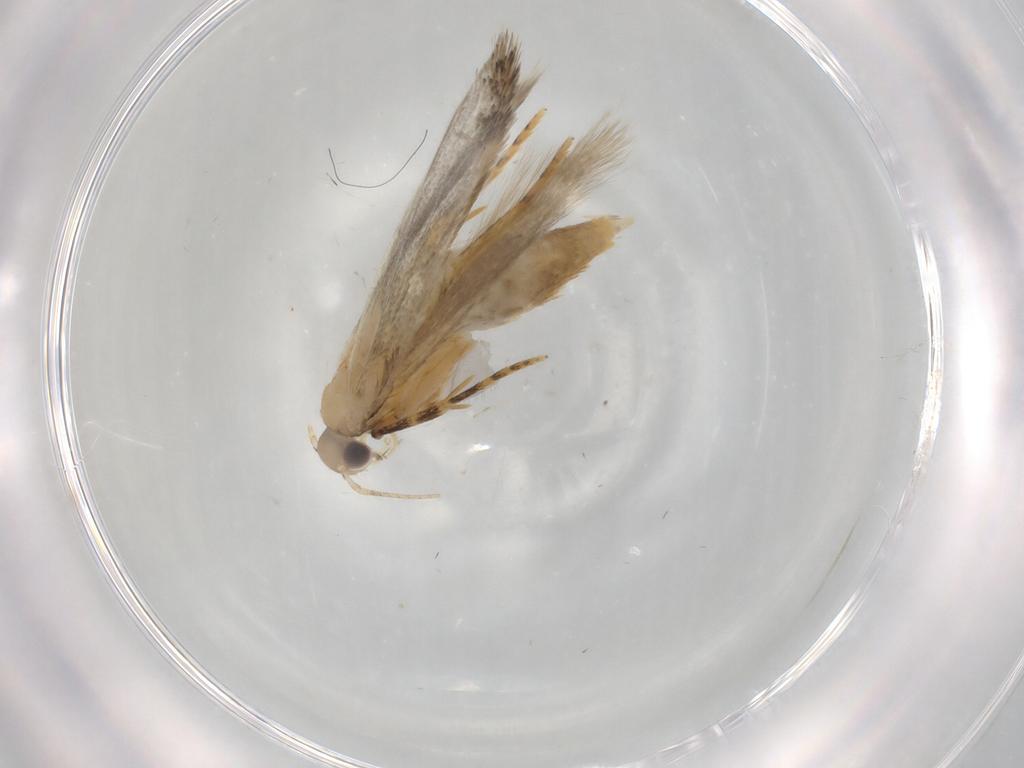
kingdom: Animalia
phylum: Arthropoda
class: Insecta
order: Lepidoptera
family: Autostichidae
